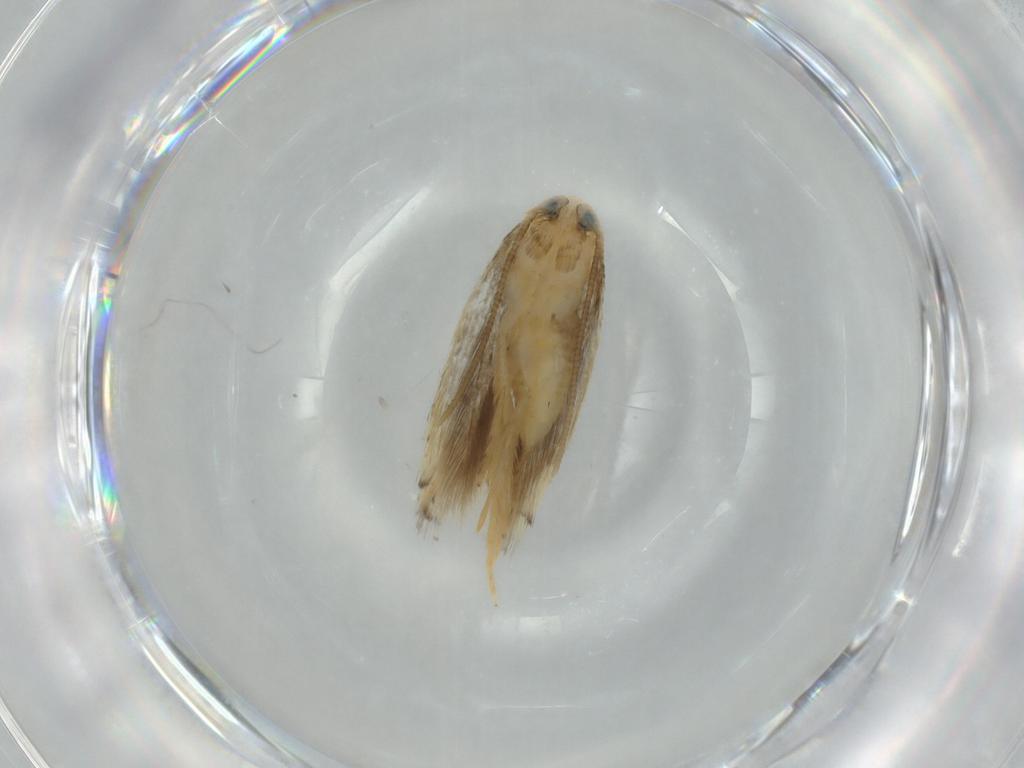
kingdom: Animalia
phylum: Arthropoda
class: Insecta
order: Lepidoptera
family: Opostegidae
